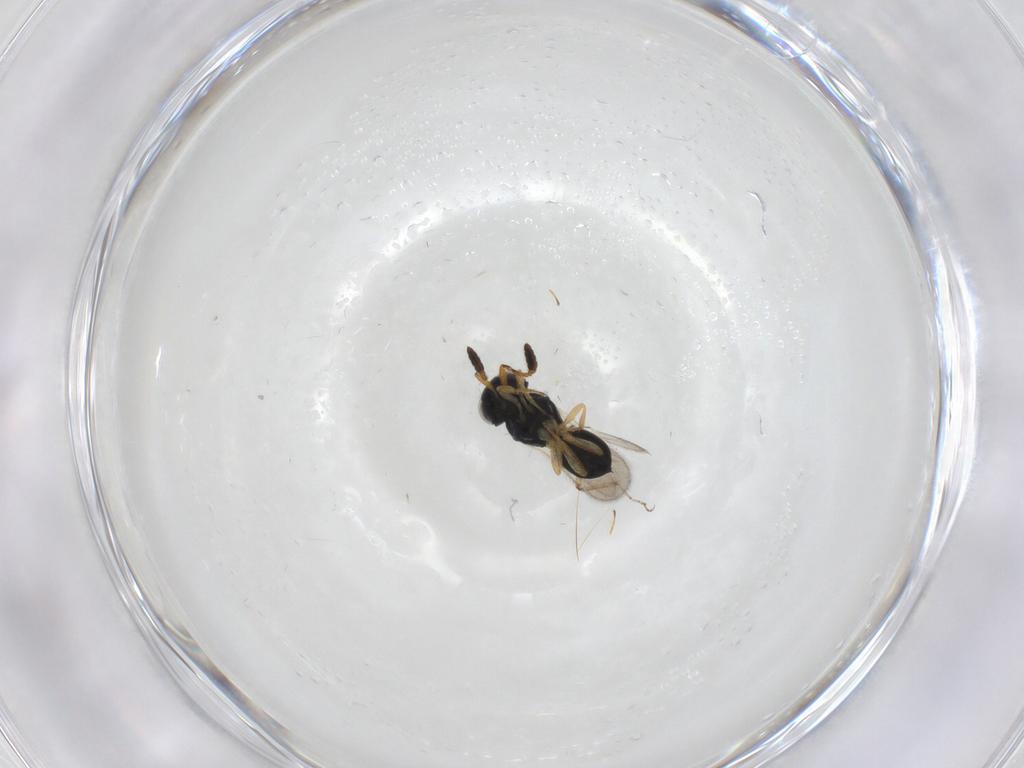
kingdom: Animalia
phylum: Arthropoda
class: Insecta
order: Hymenoptera
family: Scelionidae
